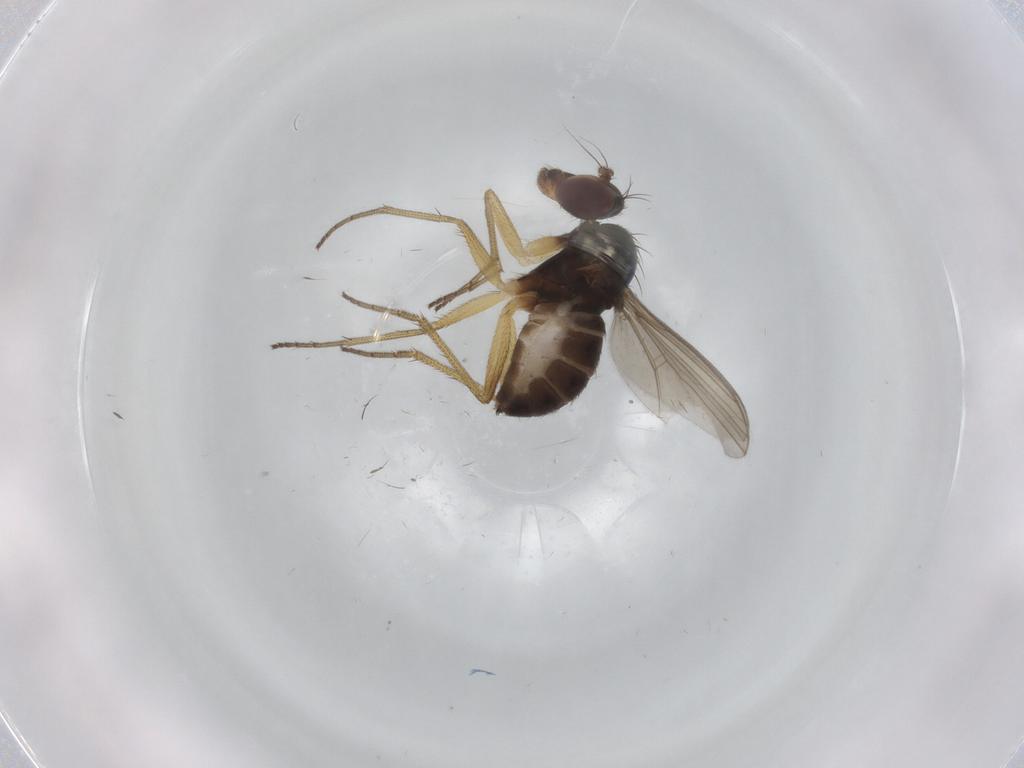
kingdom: Animalia
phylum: Arthropoda
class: Insecta
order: Diptera
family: Dolichopodidae
